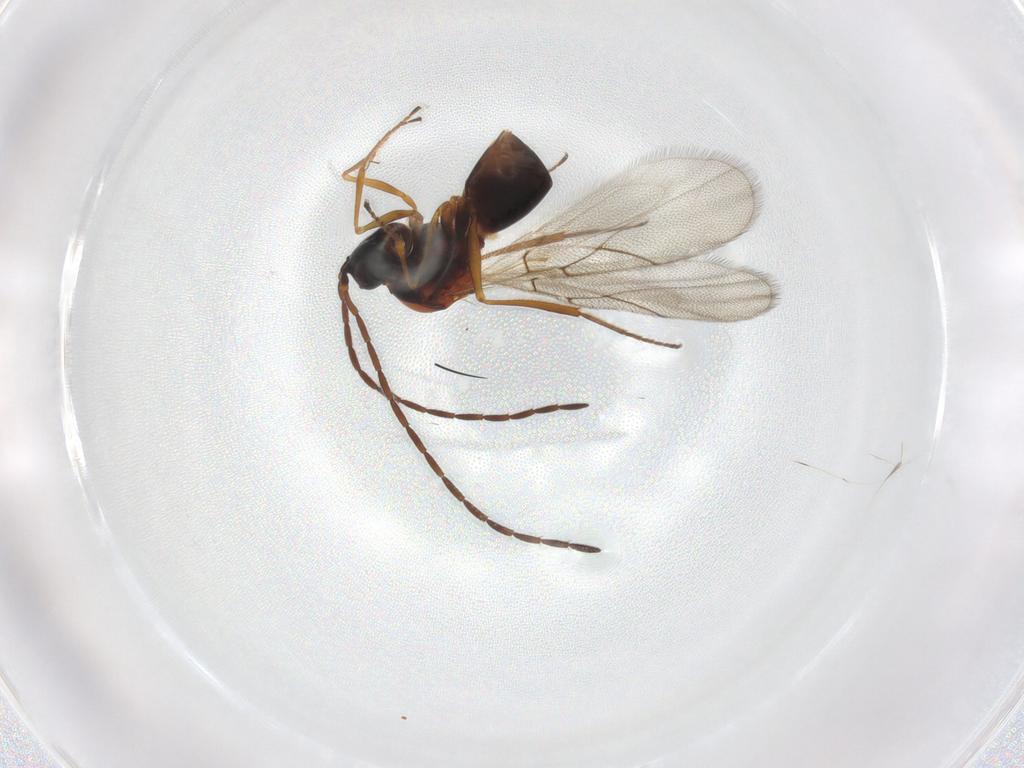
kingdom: Animalia
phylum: Arthropoda
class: Insecta
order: Hymenoptera
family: Figitidae
